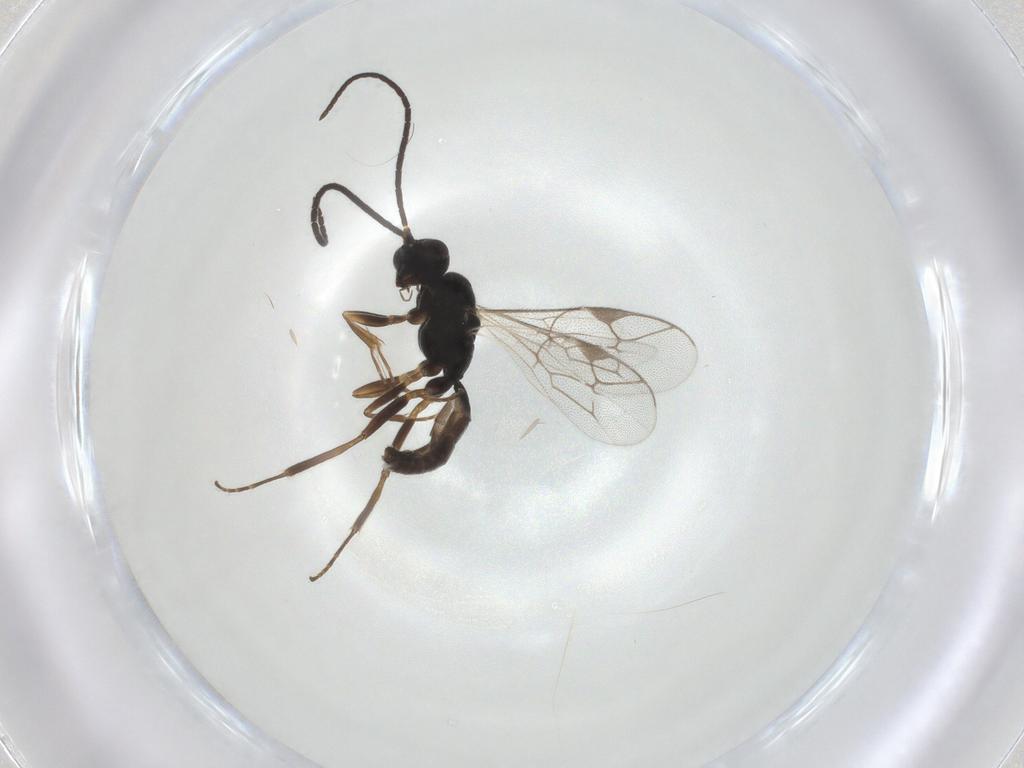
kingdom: Animalia
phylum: Arthropoda
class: Insecta
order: Hymenoptera
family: Ichneumonidae
